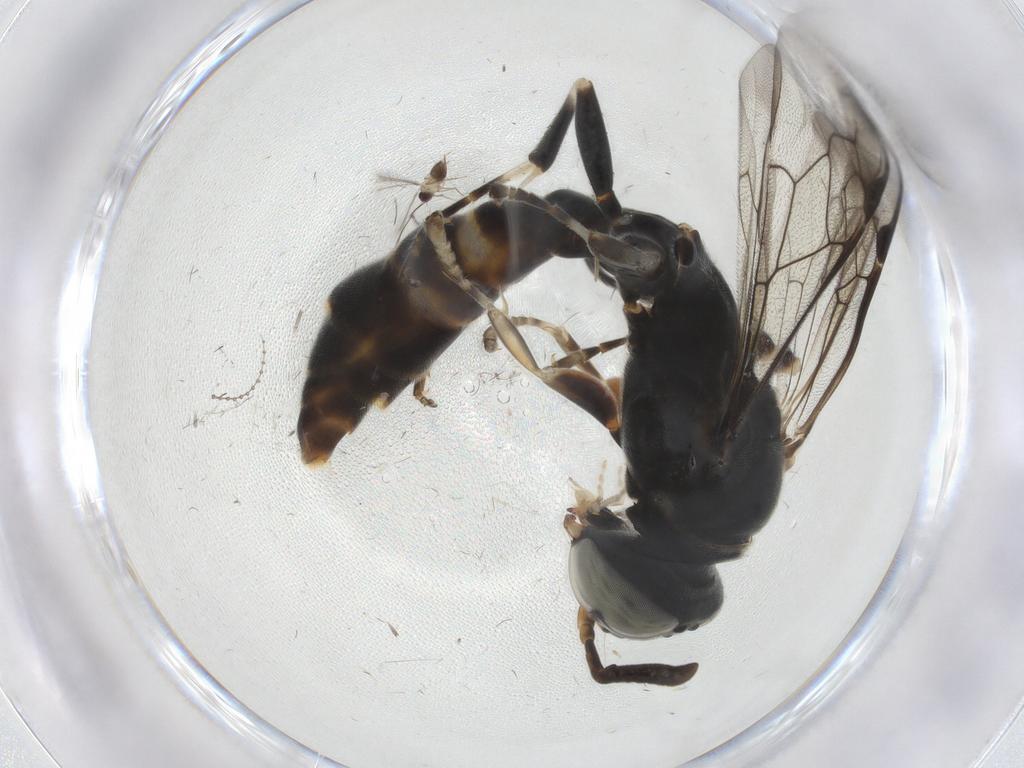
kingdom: Animalia
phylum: Arthropoda
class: Insecta
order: Hymenoptera
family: Crabronidae
